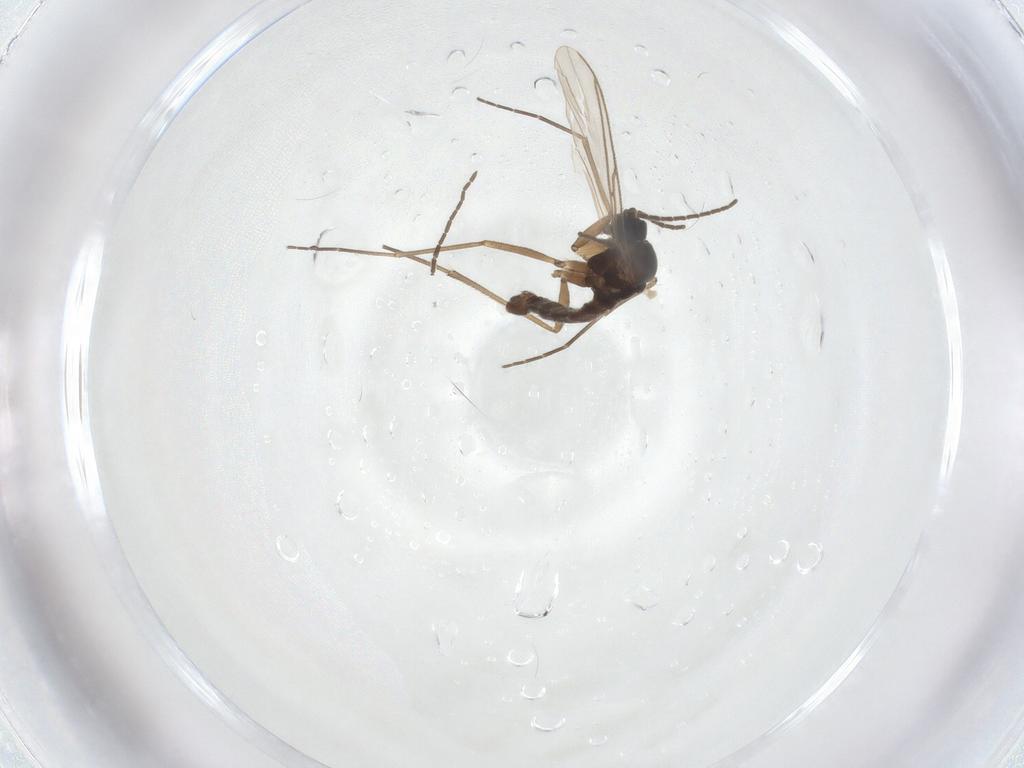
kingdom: Animalia
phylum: Arthropoda
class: Insecta
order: Diptera
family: Sciaridae
